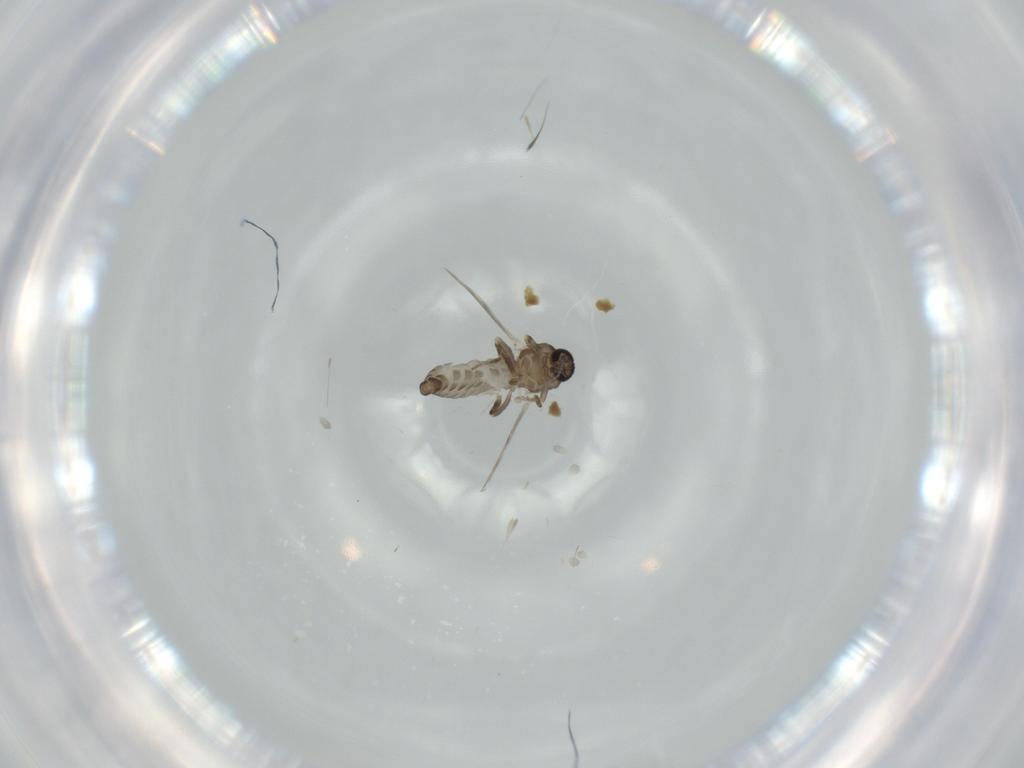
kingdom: Animalia
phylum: Arthropoda
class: Insecta
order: Diptera
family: Ceratopogonidae
